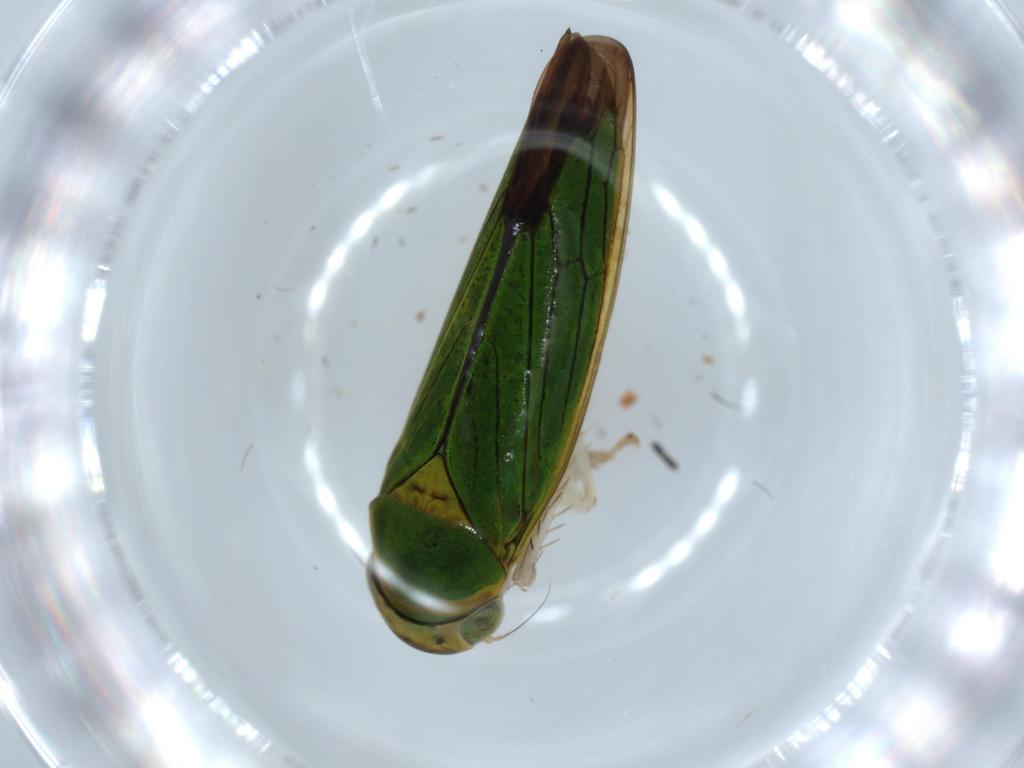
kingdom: Animalia
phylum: Arthropoda
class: Insecta
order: Hemiptera
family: Cicadellidae
